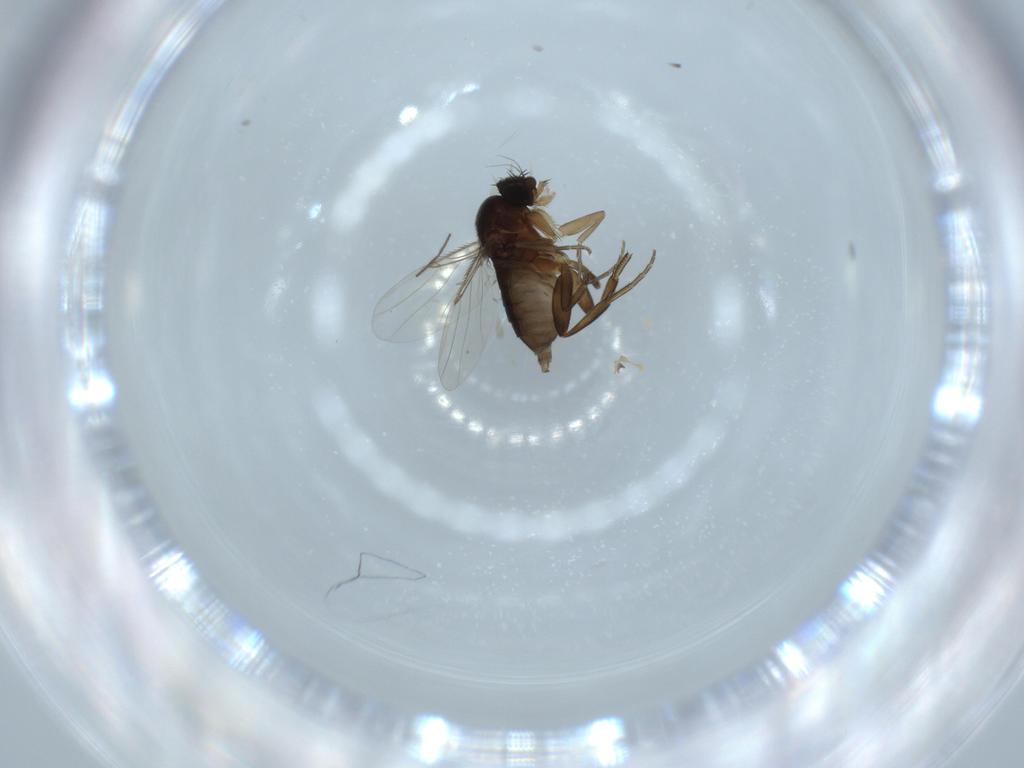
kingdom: Animalia
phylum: Arthropoda
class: Insecta
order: Diptera
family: Phoridae
